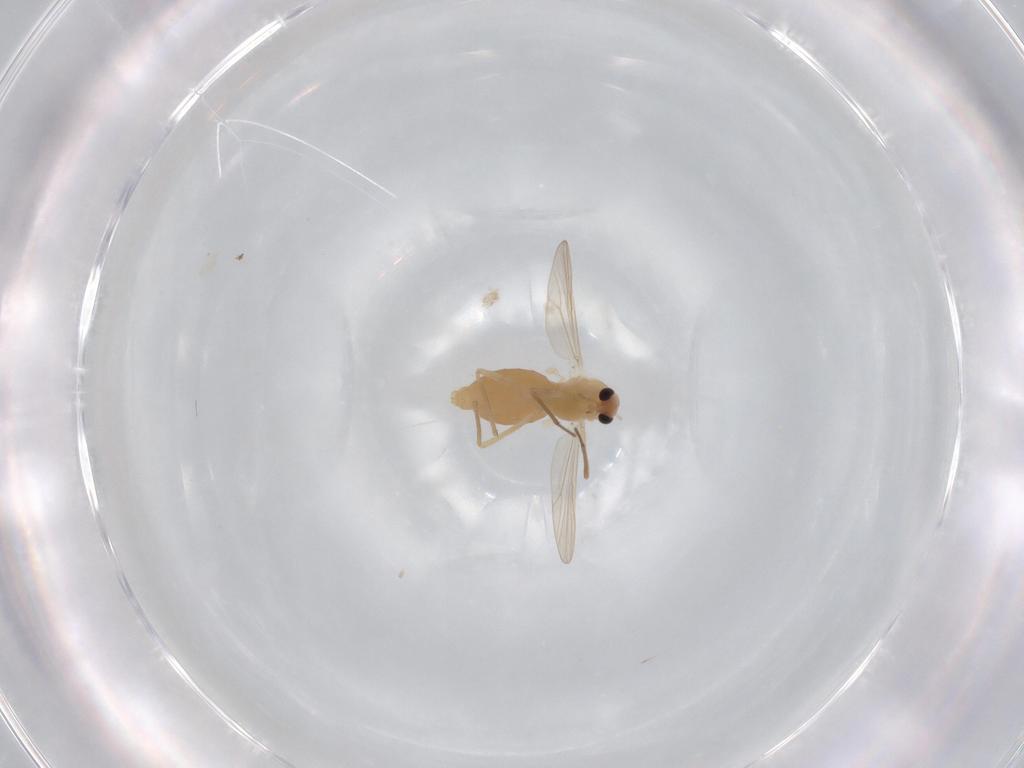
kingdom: Animalia
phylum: Arthropoda
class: Insecta
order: Diptera
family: Chironomidae
